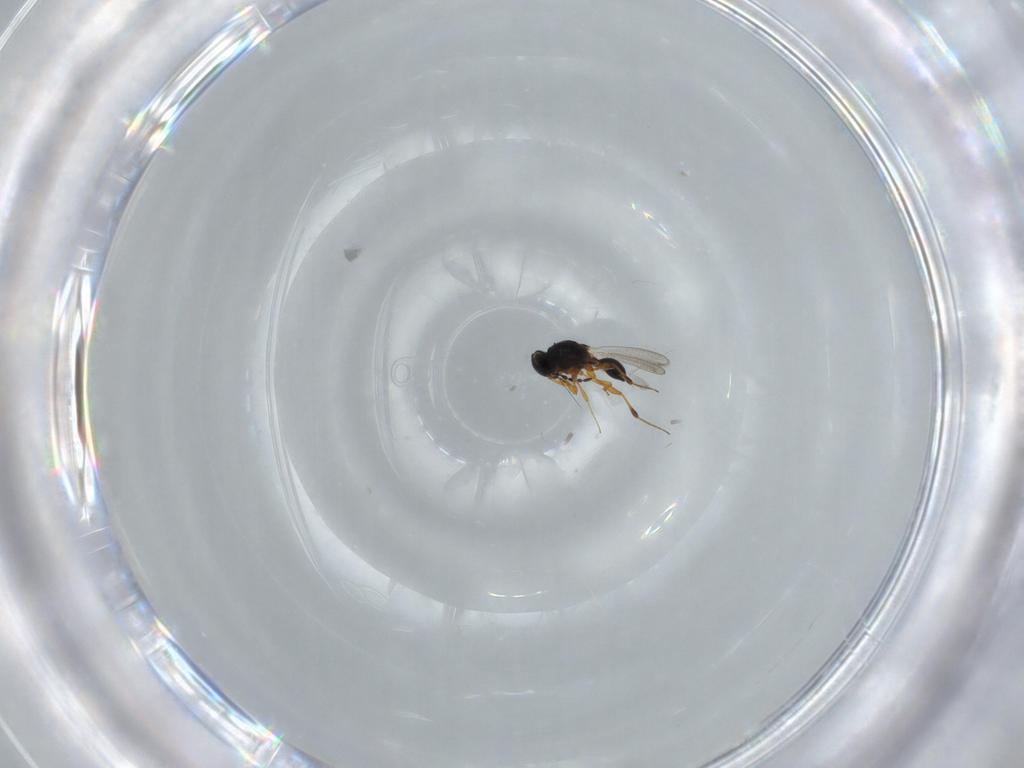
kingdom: Animalia
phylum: Arthropoda
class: Insecta
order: Hymenoptera
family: Platygastridae
